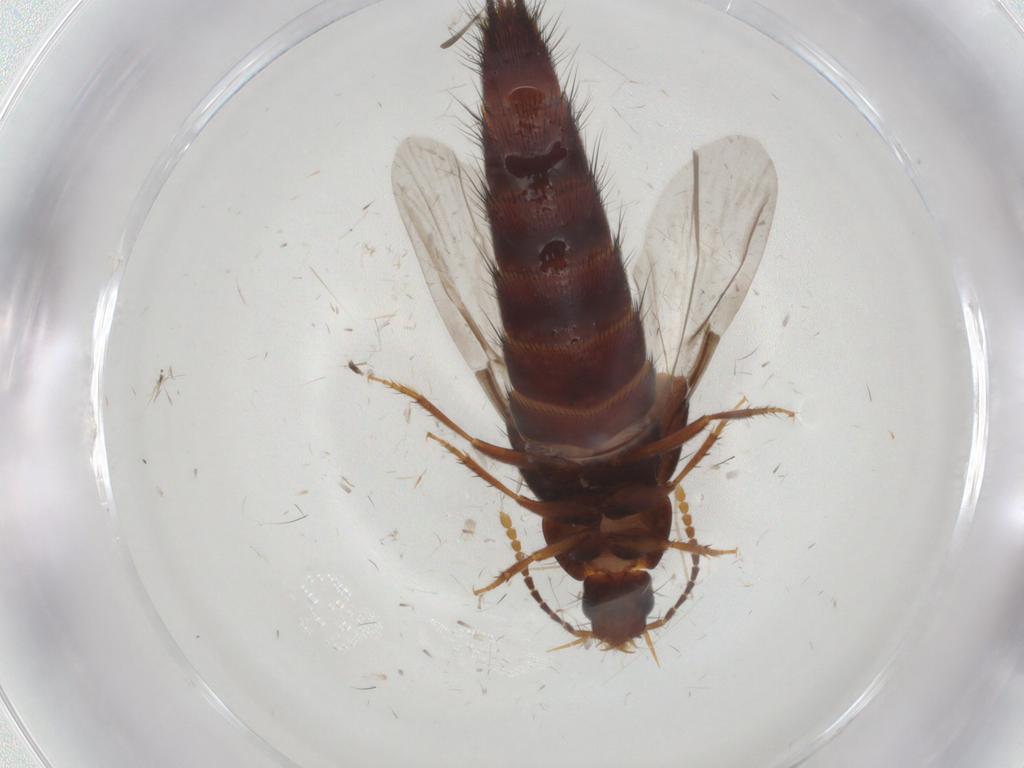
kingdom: Animalia
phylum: Arthropoda
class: Insecta
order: Coleoptera
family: Staphylinidae
